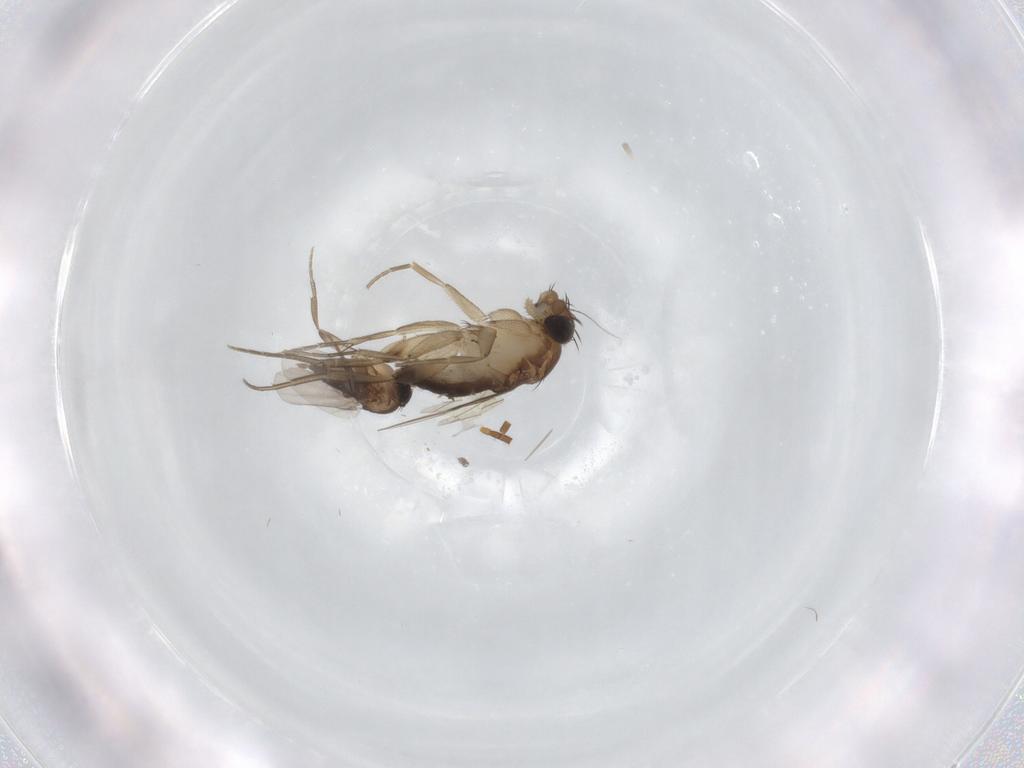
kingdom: Animalia
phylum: Arthropoda
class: Insecta
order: Diptera
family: Phoridae
